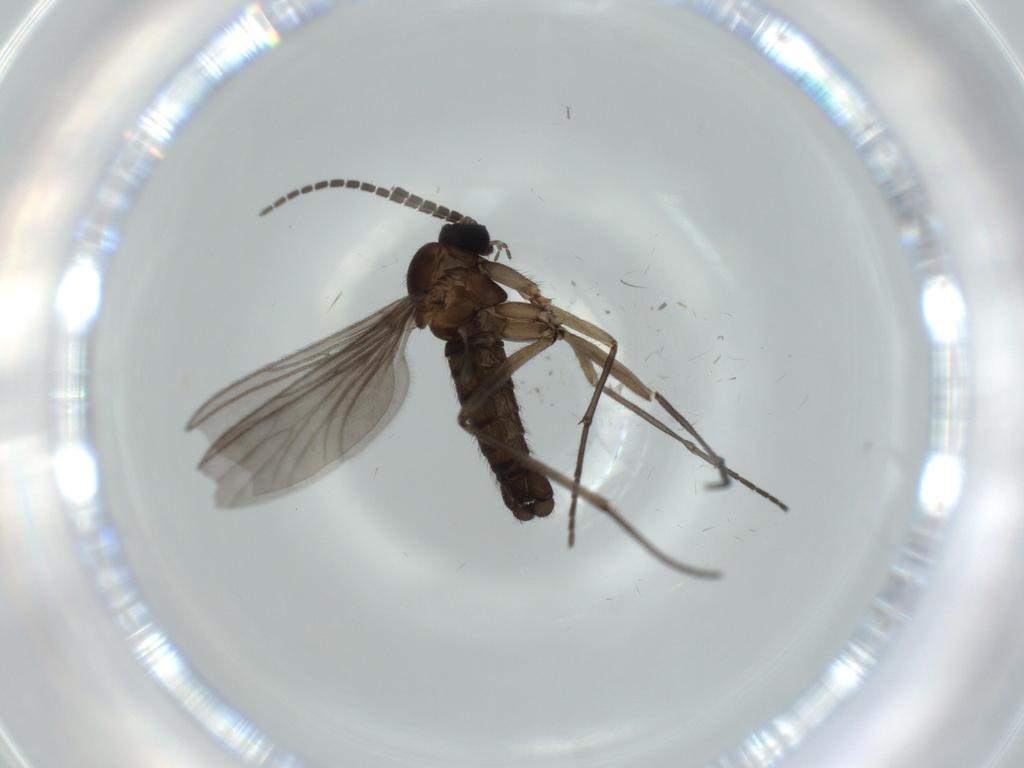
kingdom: Animalia
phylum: Arthropoda
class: Insecta
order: Diptera
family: Sciaridae
